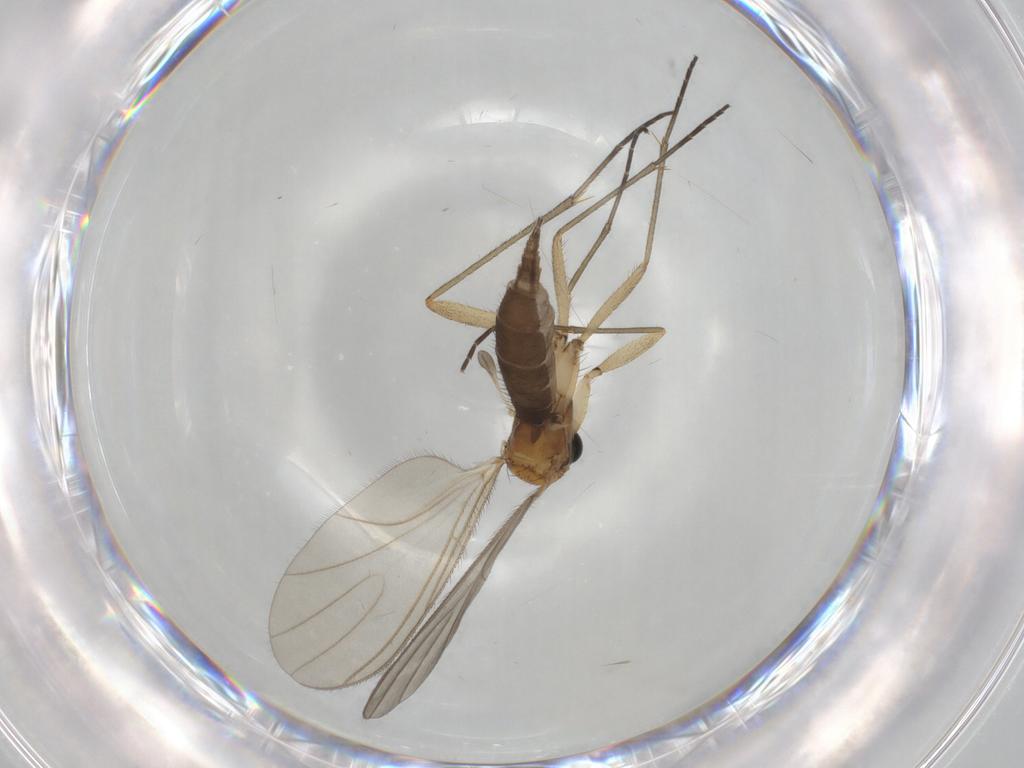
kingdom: Animalia
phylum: Arthropoda
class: Insecta
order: Diptera
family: Sciaridae
